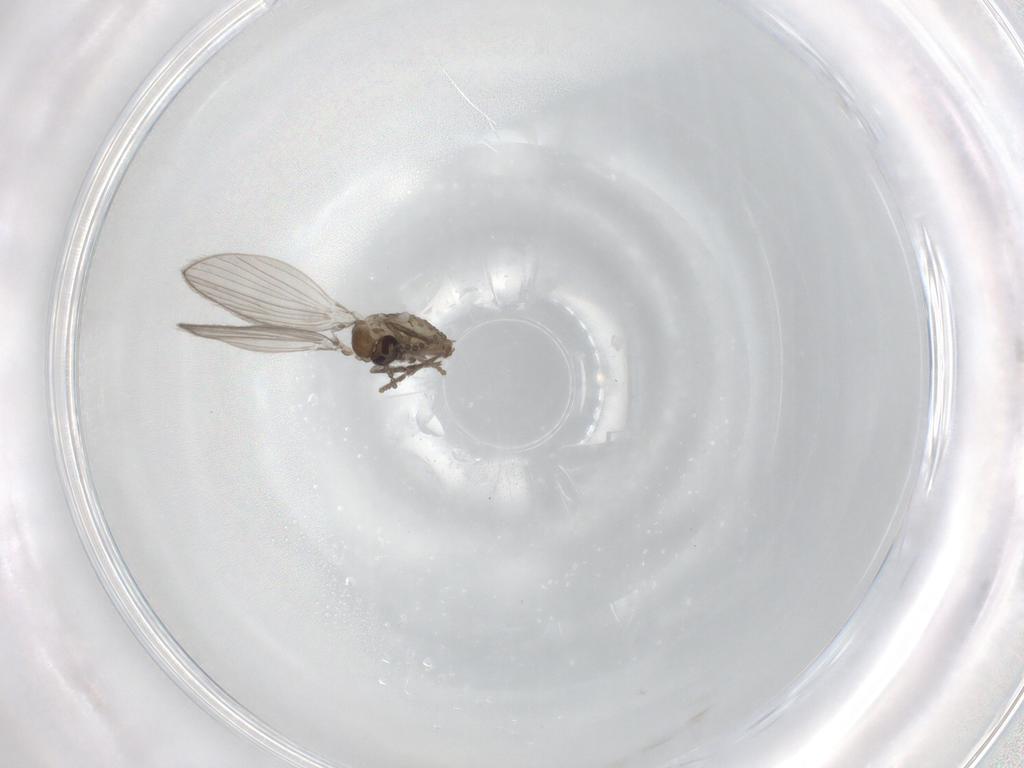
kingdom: Animalia
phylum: Arthropoda
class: Insecta
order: Diptera
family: Psychodidae
